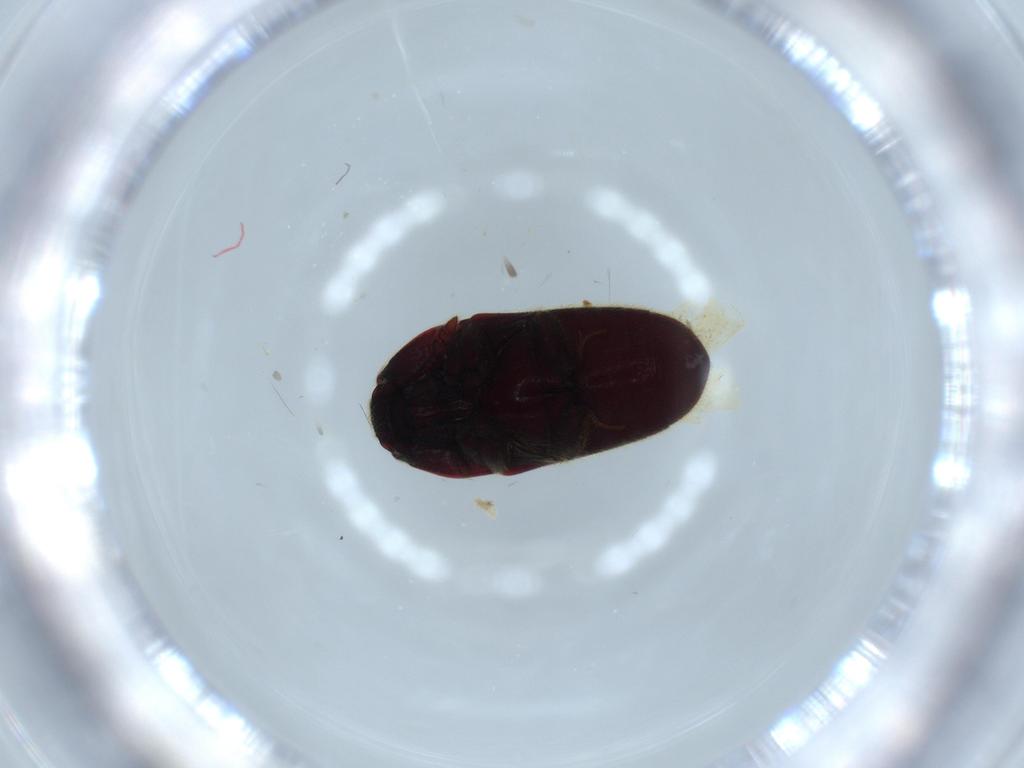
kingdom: Animalia
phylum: Arthropoda
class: Insecta
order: Coleoptera
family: Throscidae
